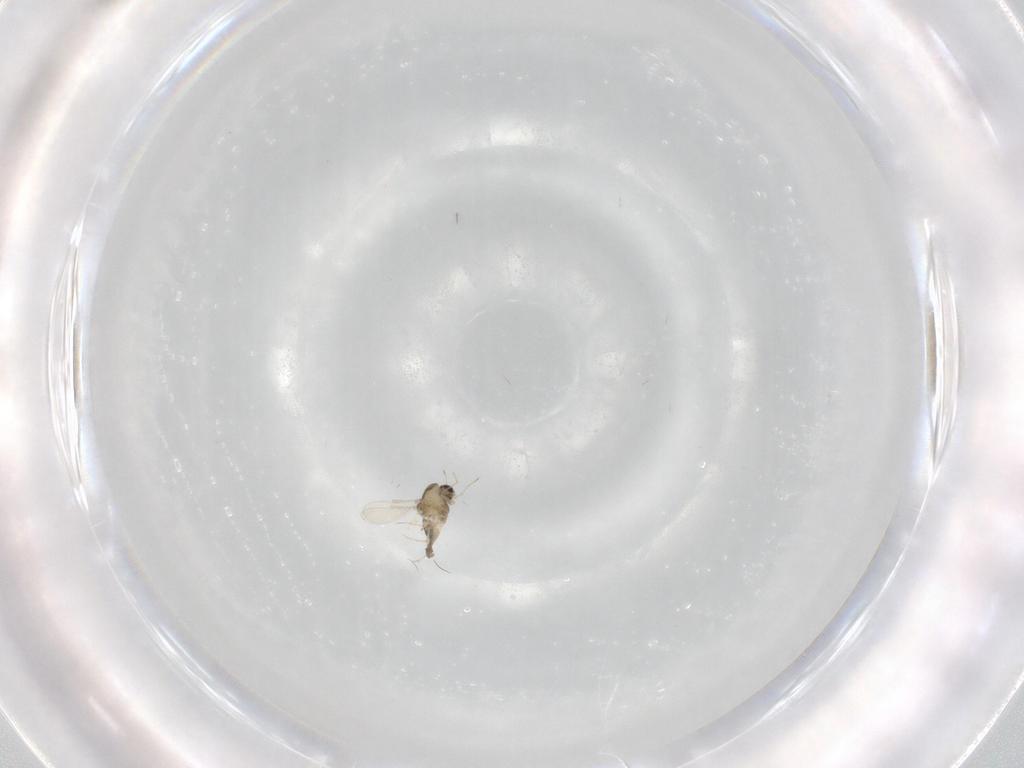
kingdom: Animalia
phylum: Arthropoda
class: Insecta
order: Diptera
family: Chironomidae
